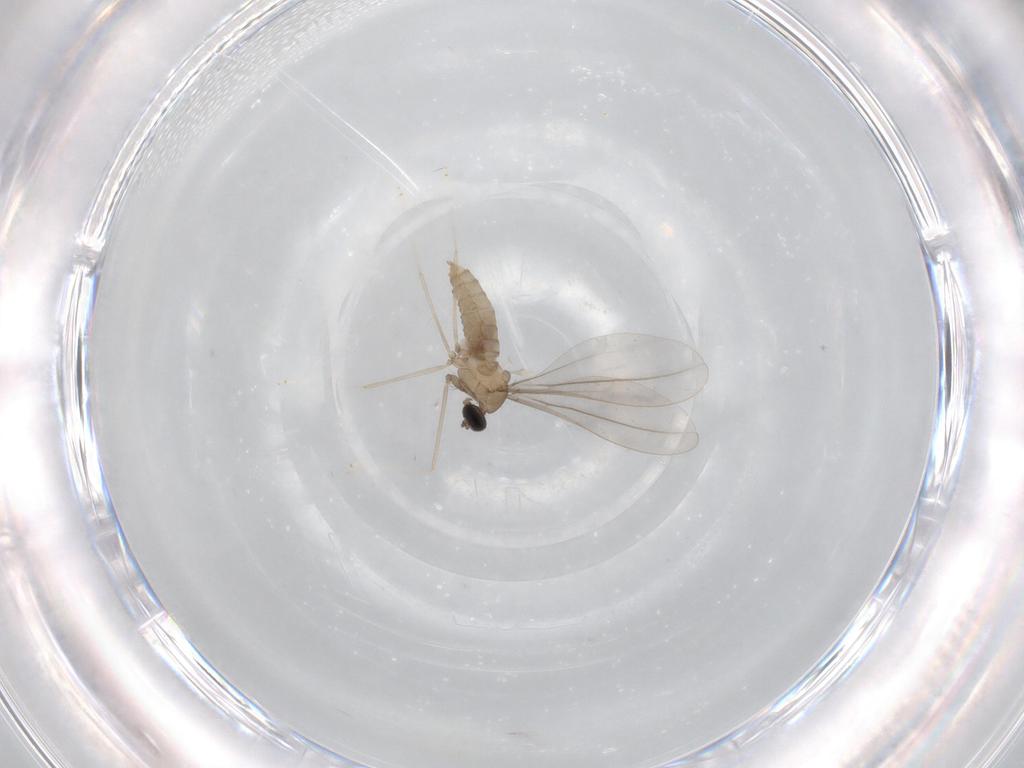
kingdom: Animalia
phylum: Arthropoda
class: Insecta
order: Diptera
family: Cecidomyiidae
